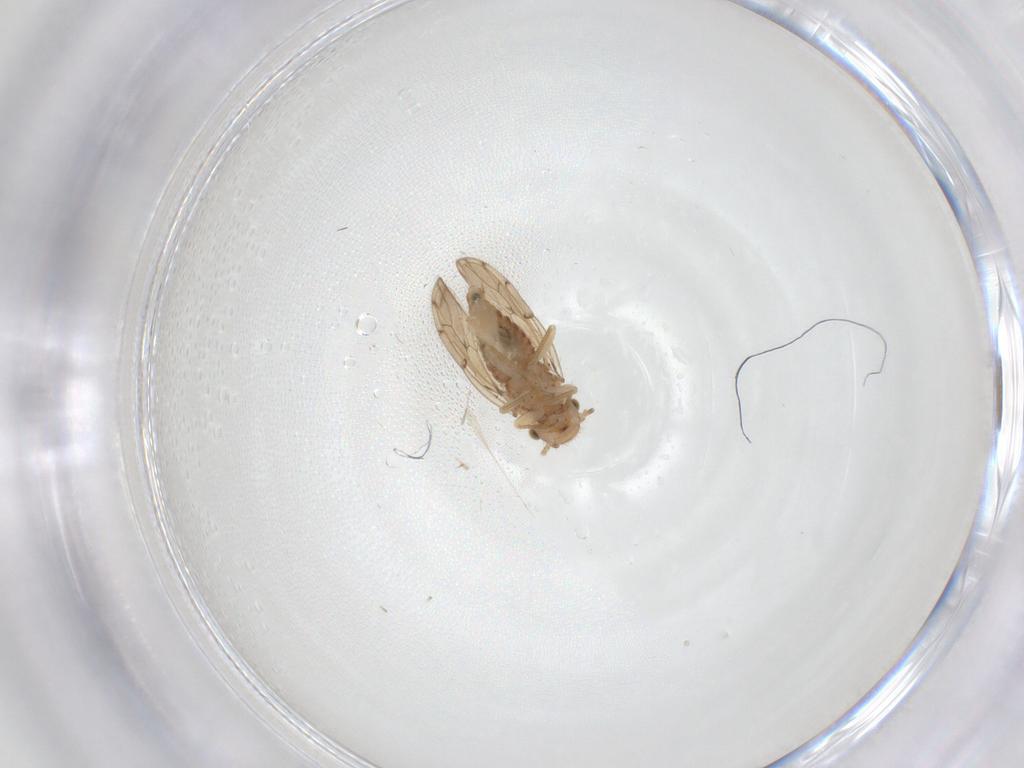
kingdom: Animalia
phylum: Arthropoda
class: Insecta
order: Psocodea
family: Ectopsocidae
